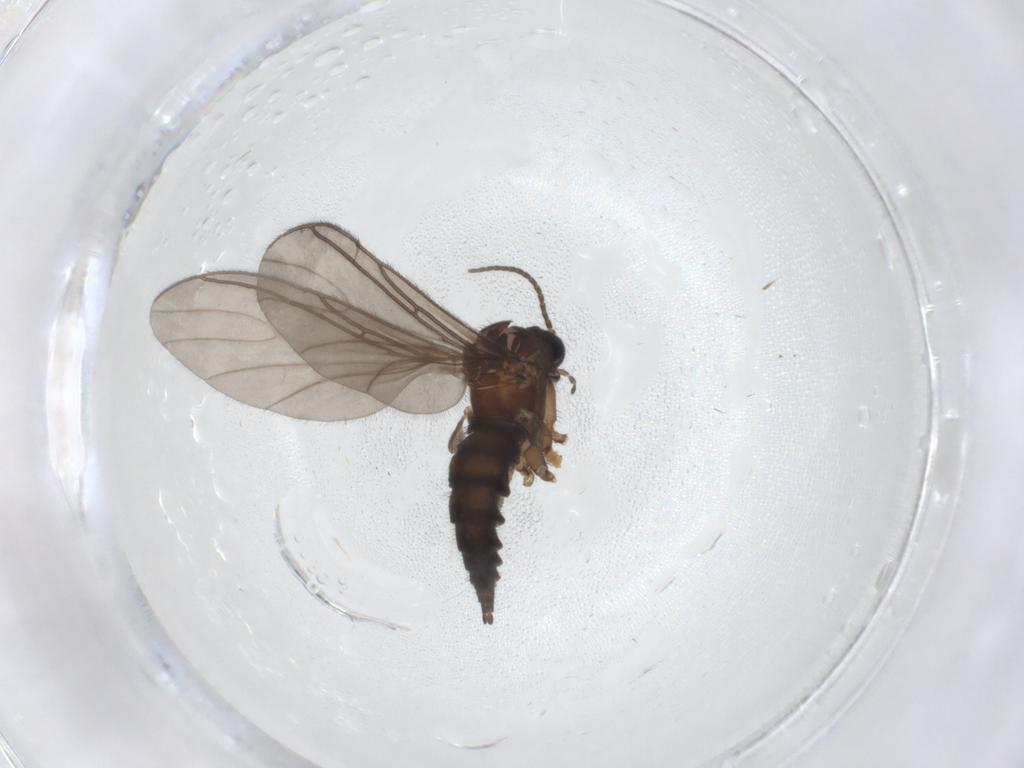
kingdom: Animalia
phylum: Arthropoda
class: Insecta
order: Diptera
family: Sciaridae
